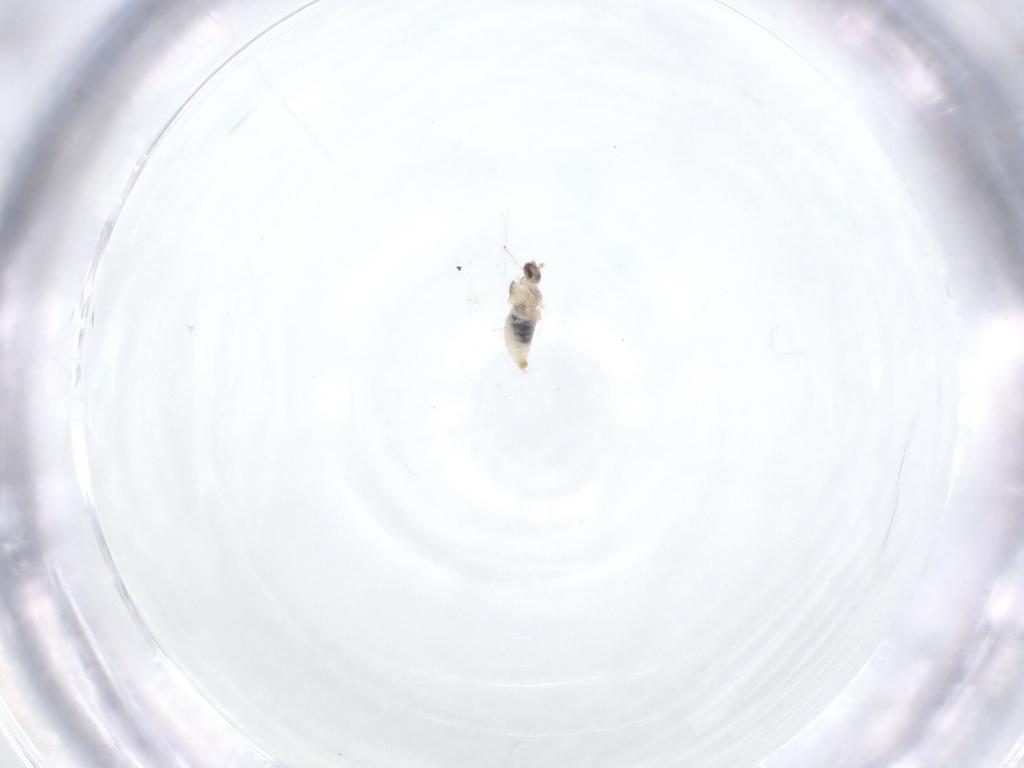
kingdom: Animalia
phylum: Arthropoda
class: Insecta
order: Diptera
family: Cecidomyiidae
